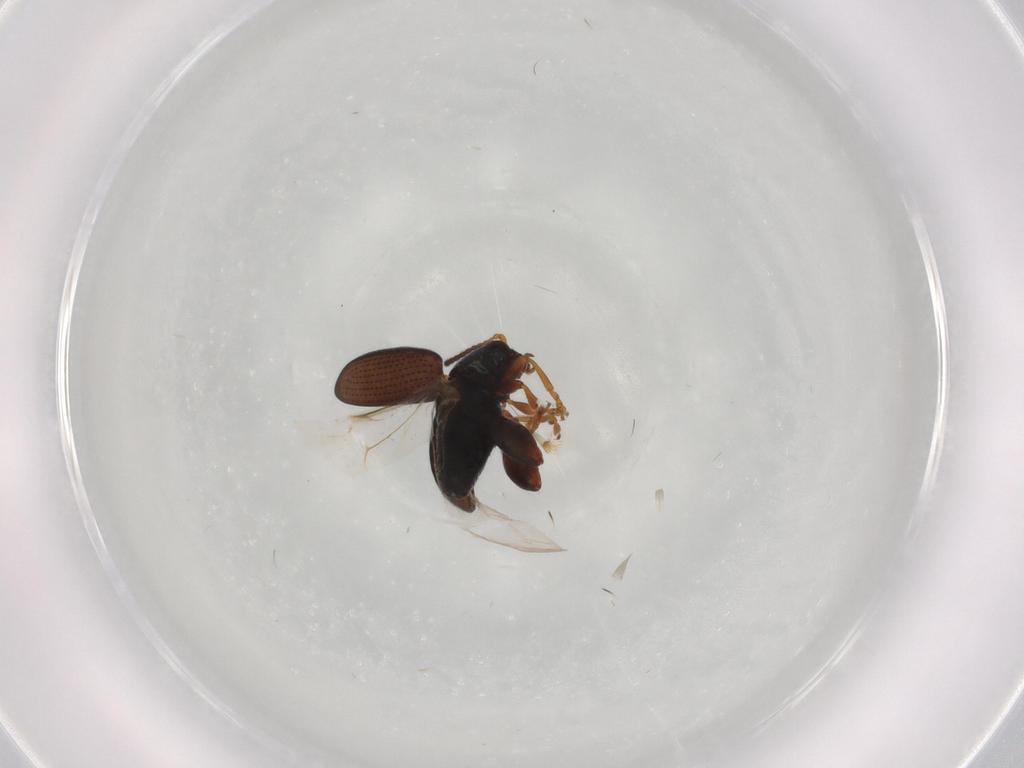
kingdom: Animalia
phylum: Arthropoda
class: Insecta
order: Coleoptera
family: Chrysomelidae
